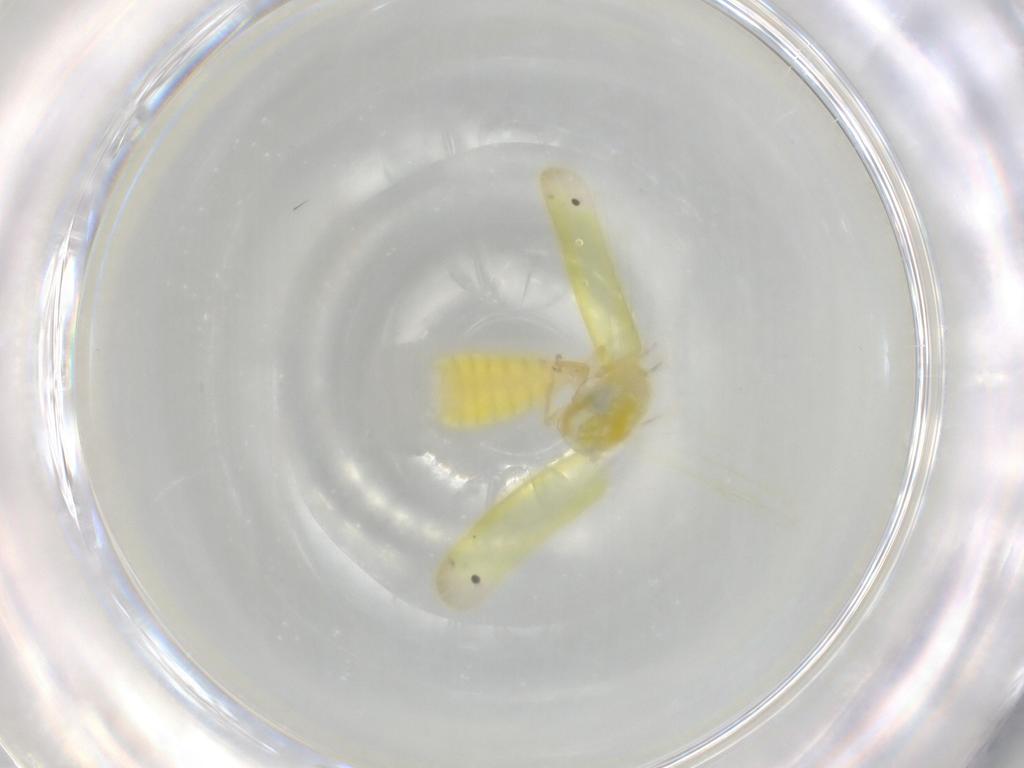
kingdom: Animalia
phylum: Arthropoda
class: Insecta
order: Hemiptera
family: Cicadellidae
